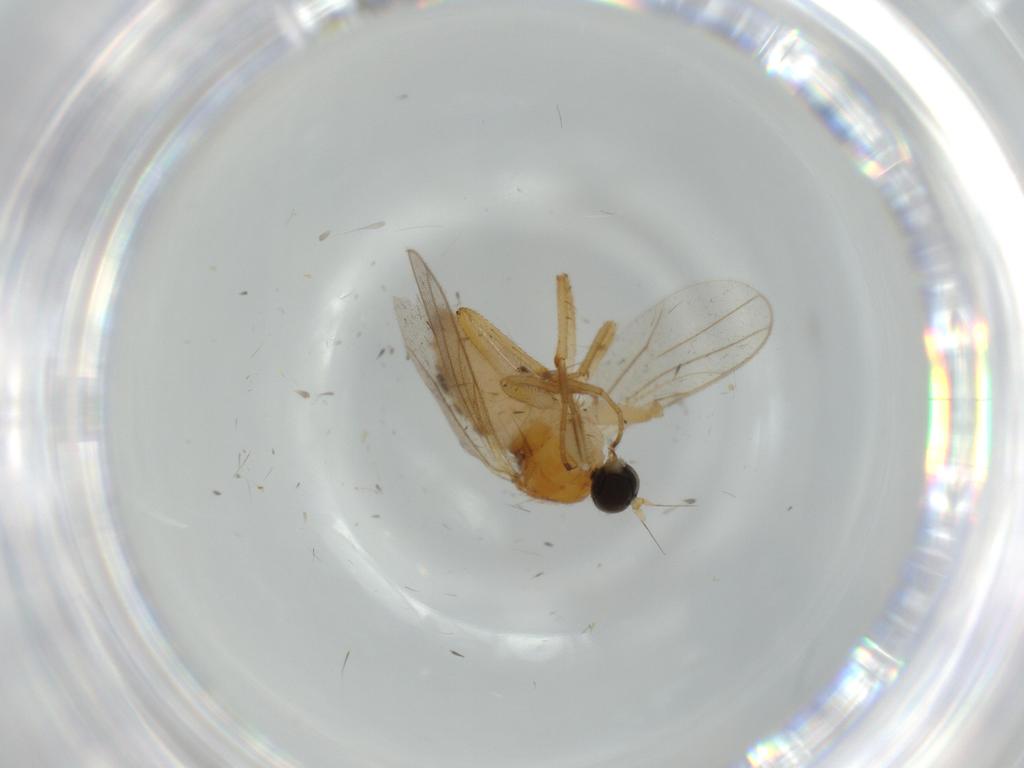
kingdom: Animalia
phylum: Arthropoda
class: Insecta
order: Diptera
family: Hybotidae
